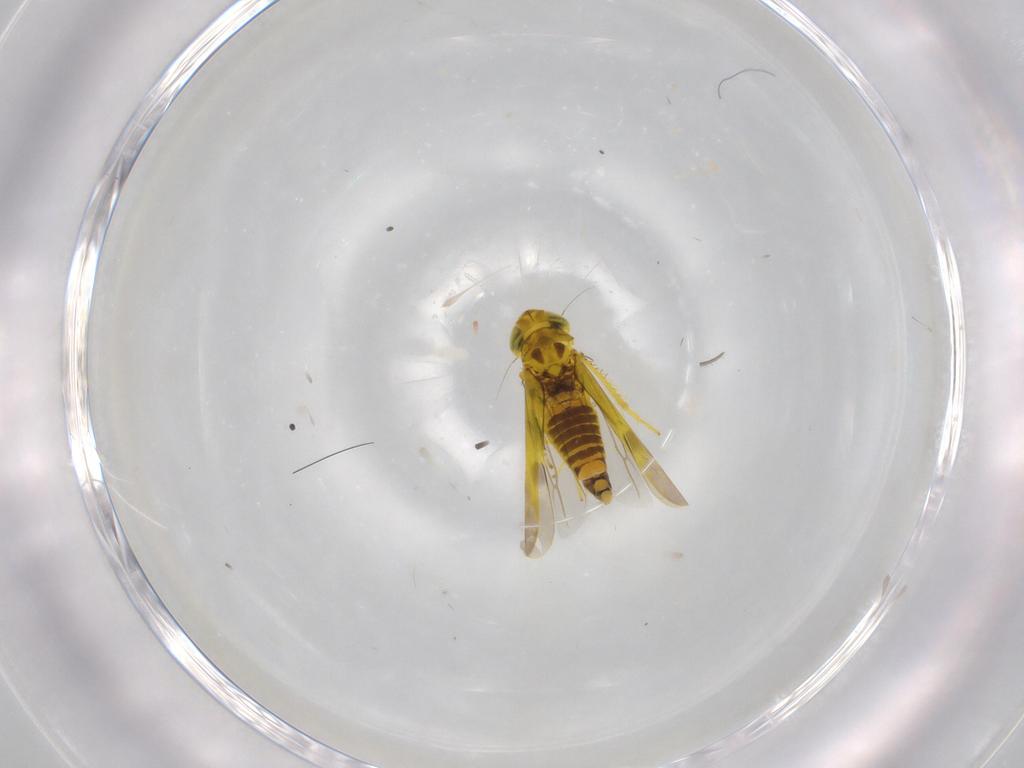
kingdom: Animalia
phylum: Arthropoda
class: Insecta
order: Hemiptera
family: Cicadellidae
